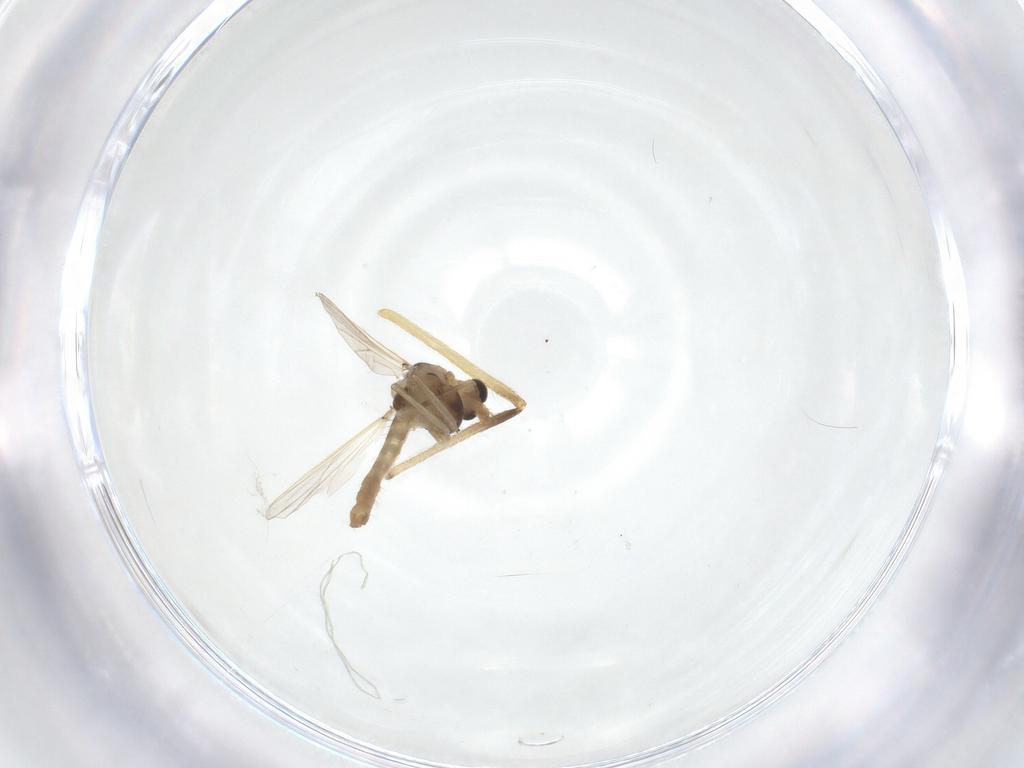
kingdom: Animalia
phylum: Arthropoda
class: Insecta
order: Diptera
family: Chironomidae
